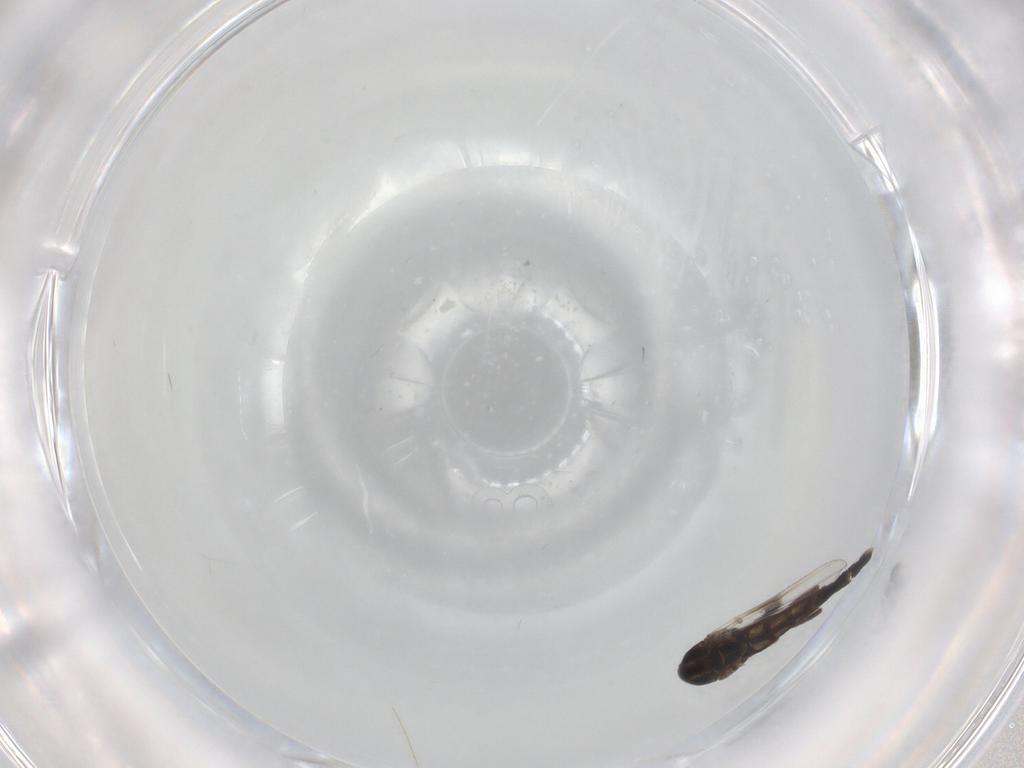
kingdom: Animalia
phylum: Arthropoda
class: Insecta
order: Diptera
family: Chironomidae
